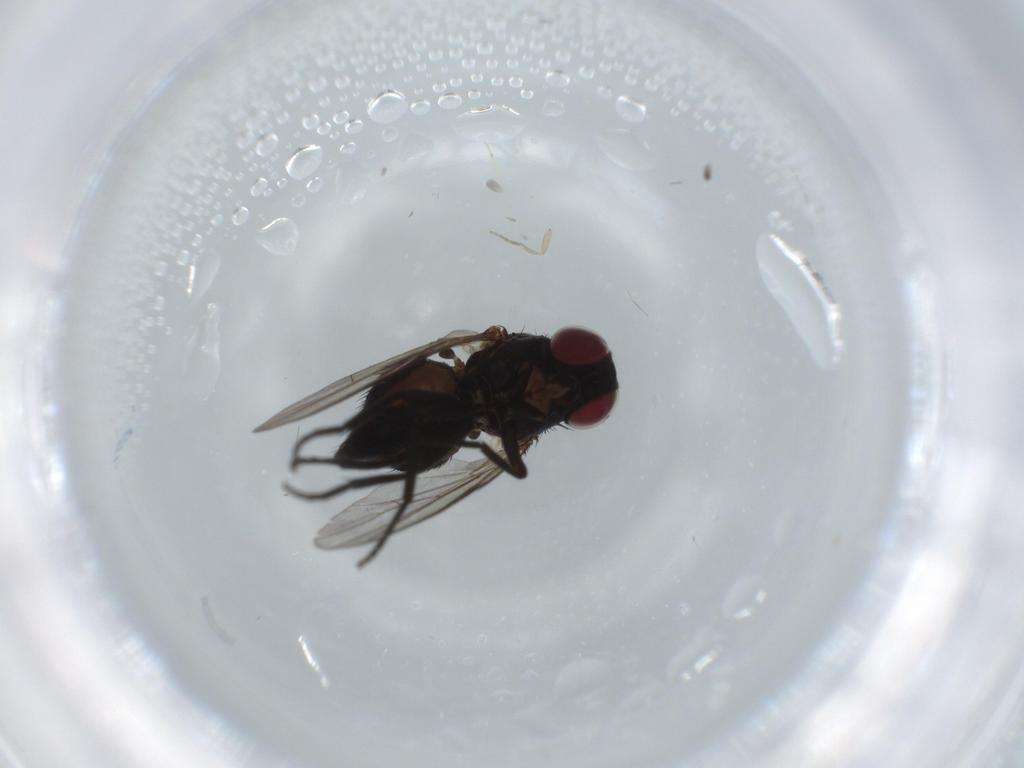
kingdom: Animalia
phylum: Arthropoda
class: Insecta
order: Diptera
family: Agromyzidae
